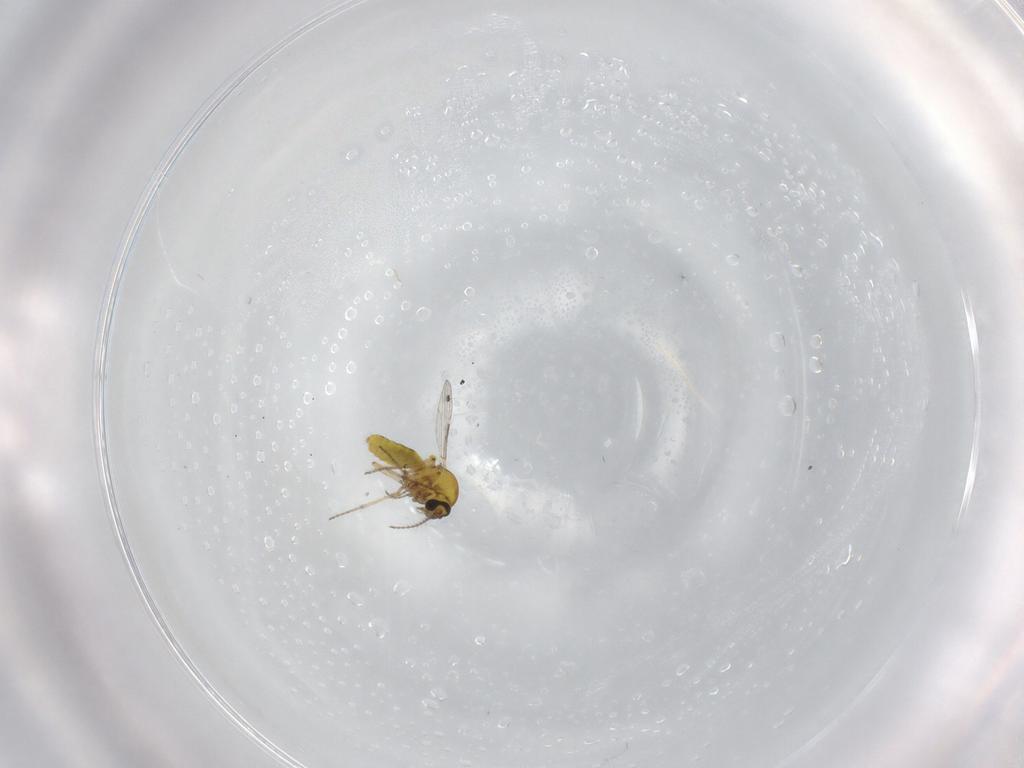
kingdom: Animalia
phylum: Arthropoda
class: Insecta
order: Diptera
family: Ceratopogonidae
